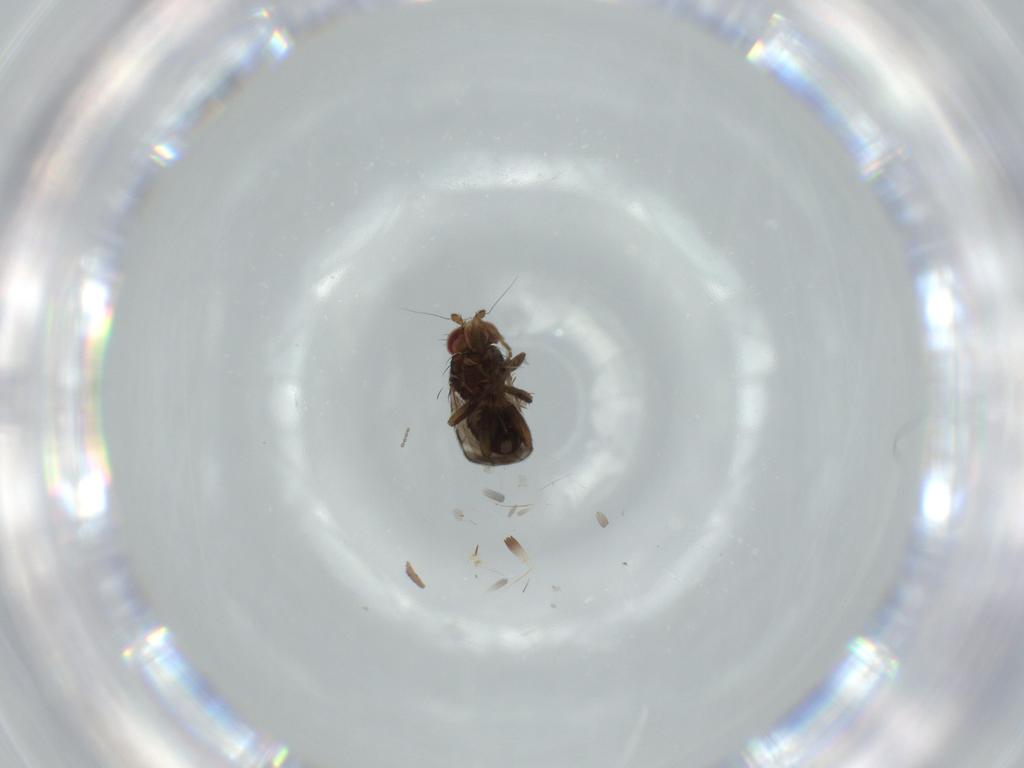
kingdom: Animalia
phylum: Arthropoda
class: Insecta
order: Diptera
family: Sphaeroceridae
